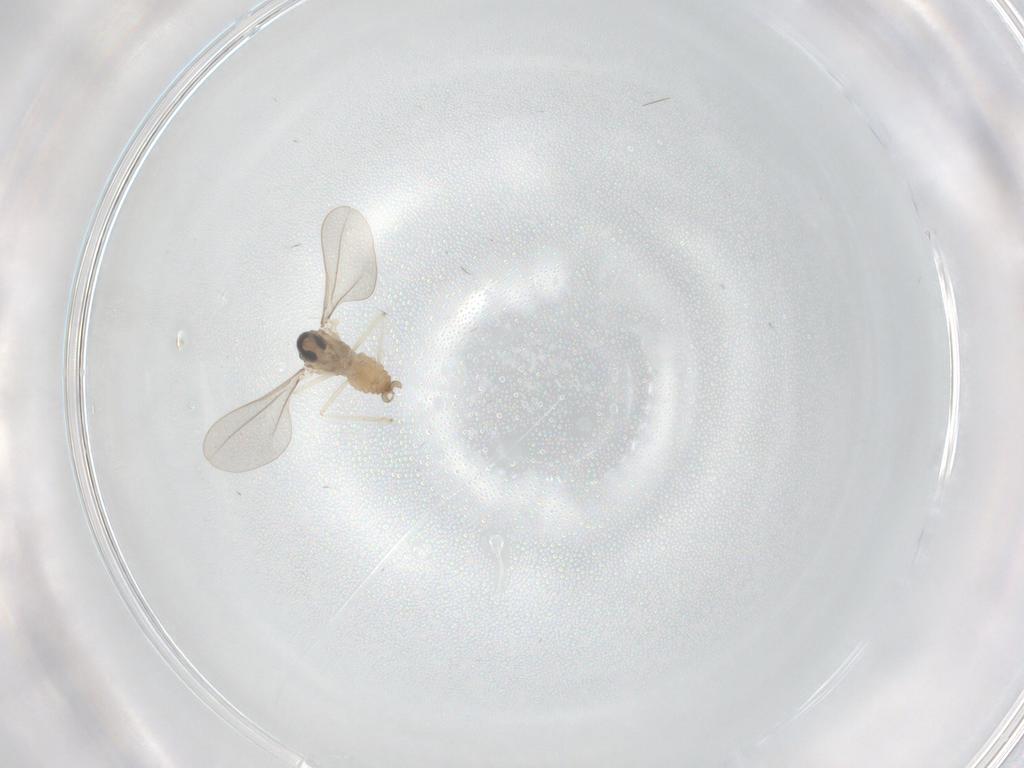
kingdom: Animalia
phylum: Arthropoda
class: Insecta
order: Diptera
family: Cecidomyiidae
